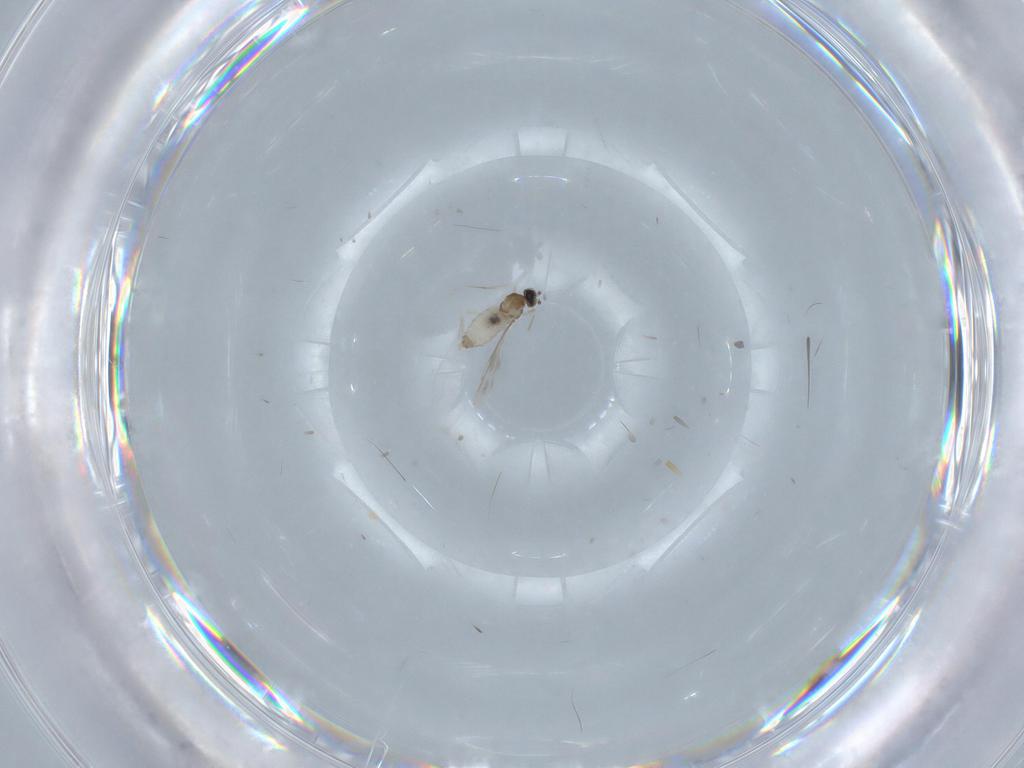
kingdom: Animalia
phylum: Arthropoda
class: Insecta
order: Diptera
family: Cecidomyiidae
